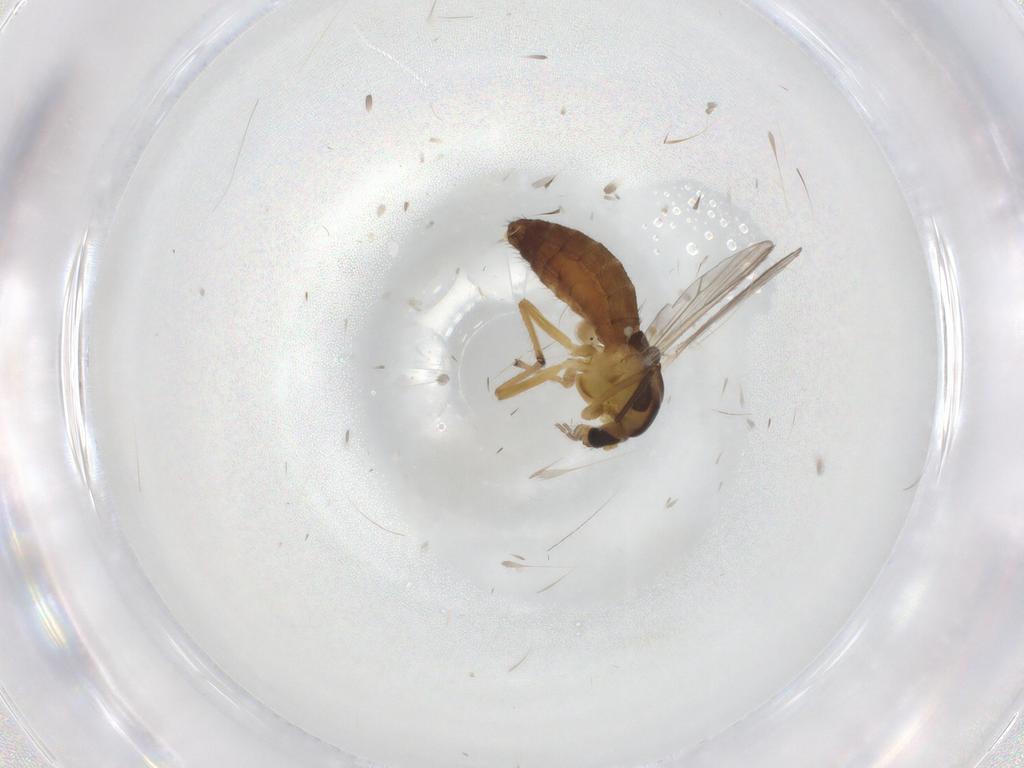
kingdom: Animalia
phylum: Arthropoda
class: Insecta
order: Diptera
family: Chironomidae
